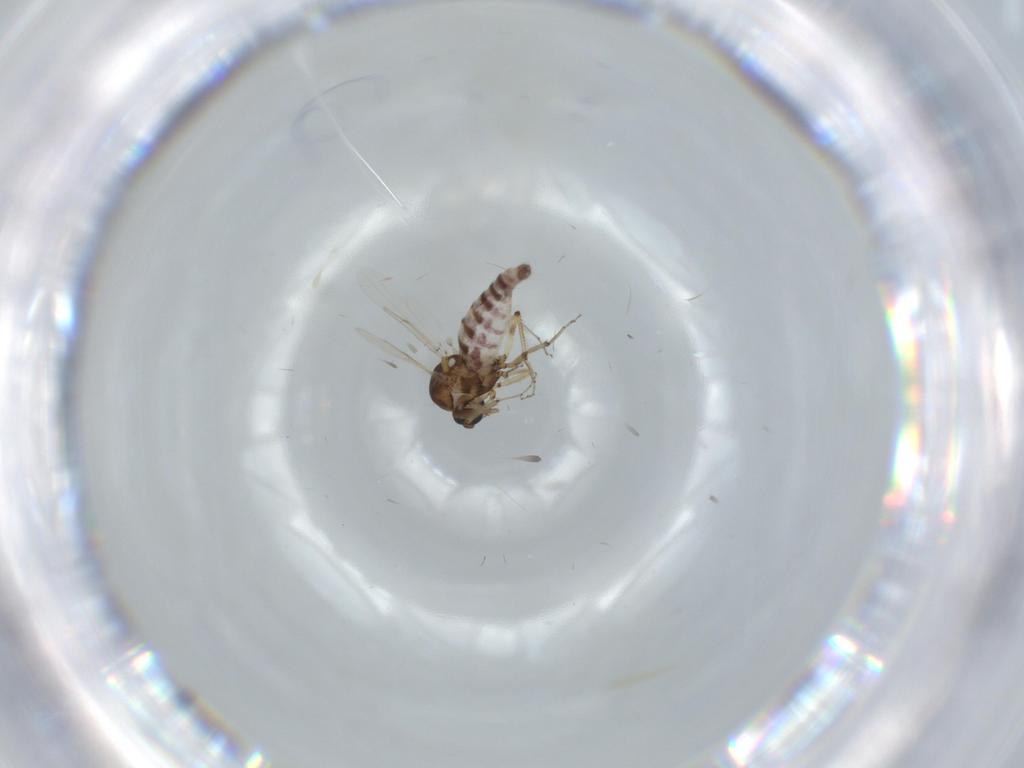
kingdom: Animalia
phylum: Arthropoda
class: Insecta
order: Diptera
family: Ceratopogonidae
